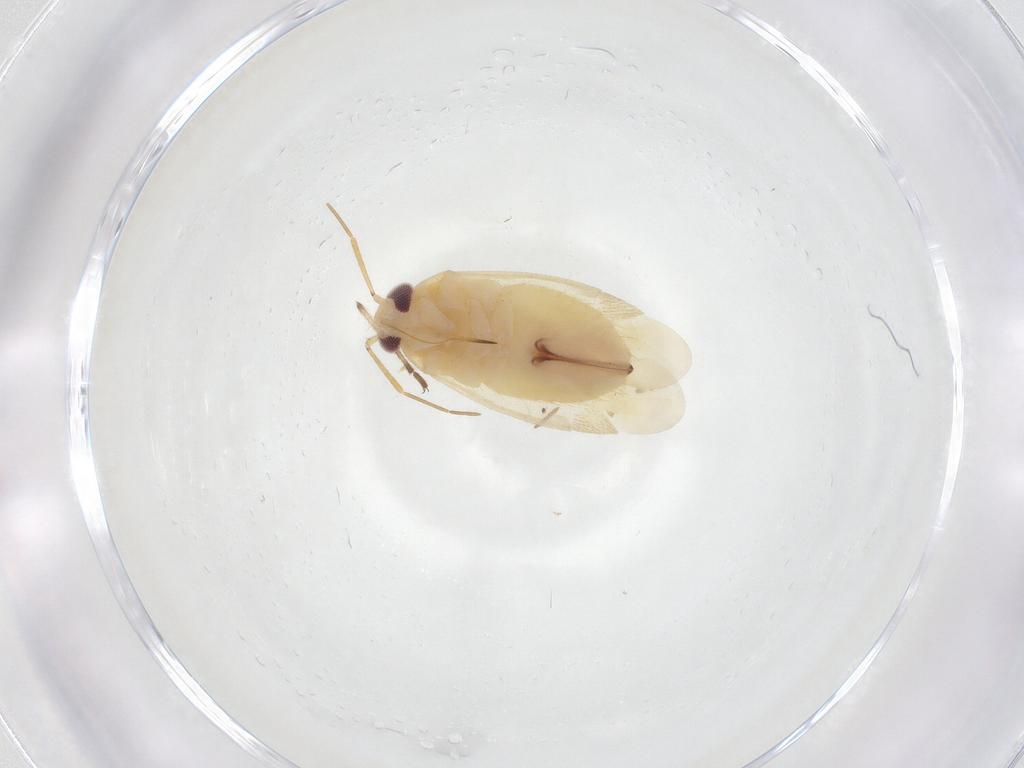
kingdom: Animalia
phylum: Arthropoda
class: Insecta
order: Hemiptera
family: Miridae
